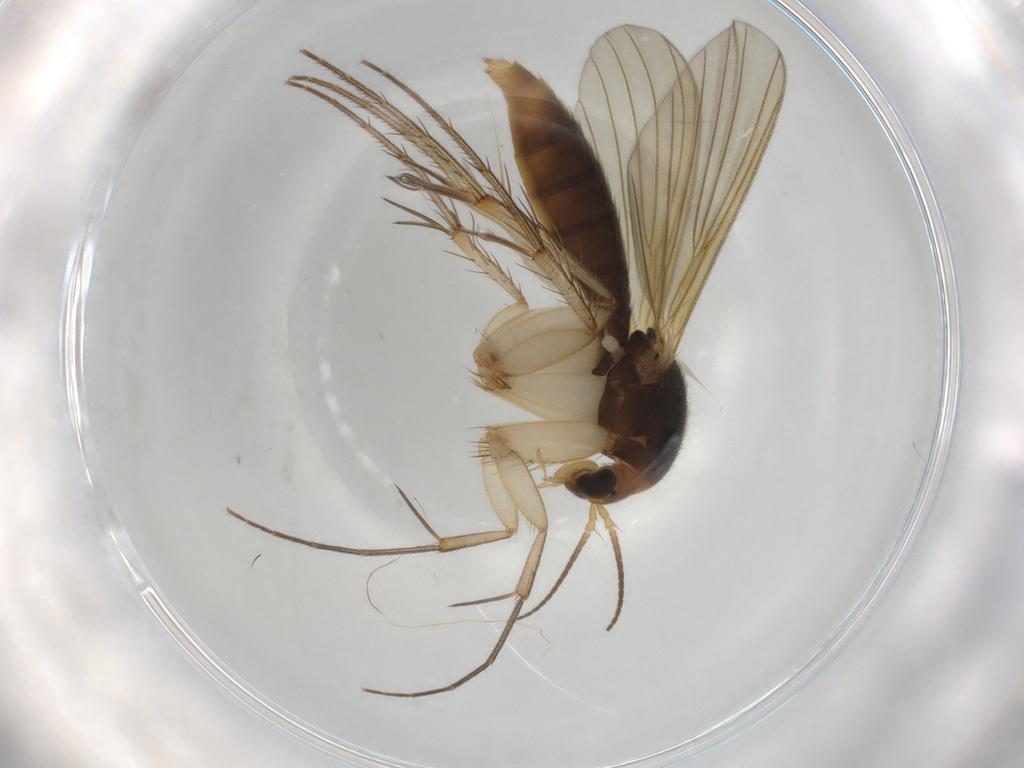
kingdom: Animalia
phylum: Arthropoda
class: Insecta
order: Diptera
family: Mycetophilidae
